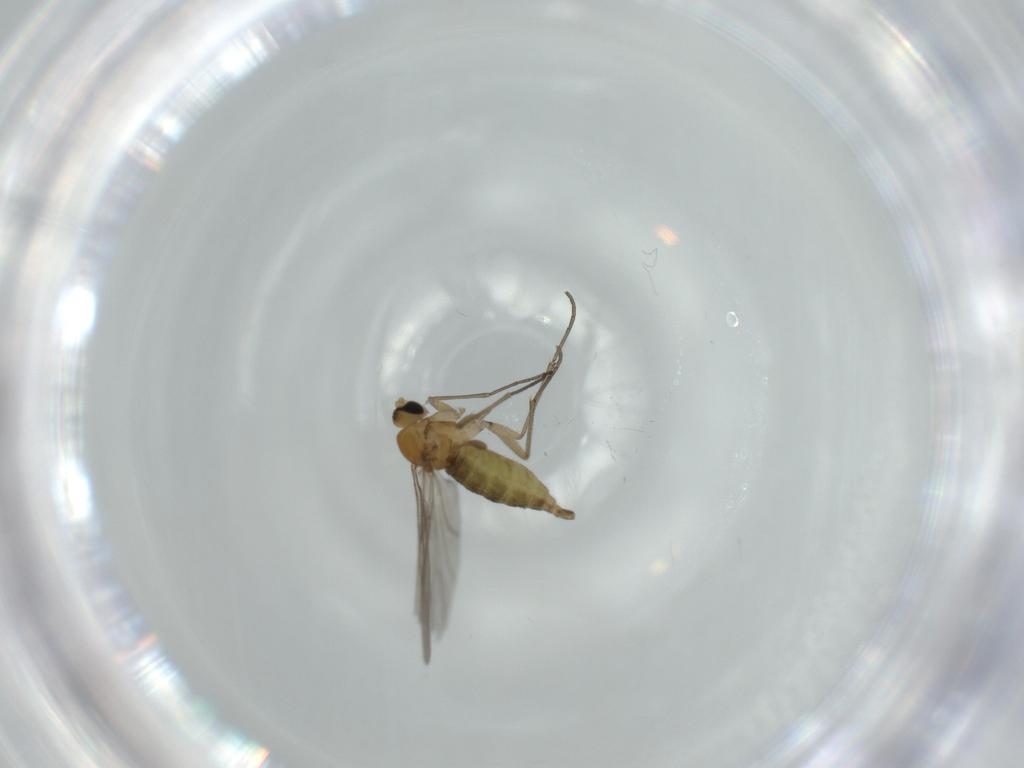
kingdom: Animalia
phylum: Arthropoda
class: Insecta
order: Diptera
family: Sciaridae
